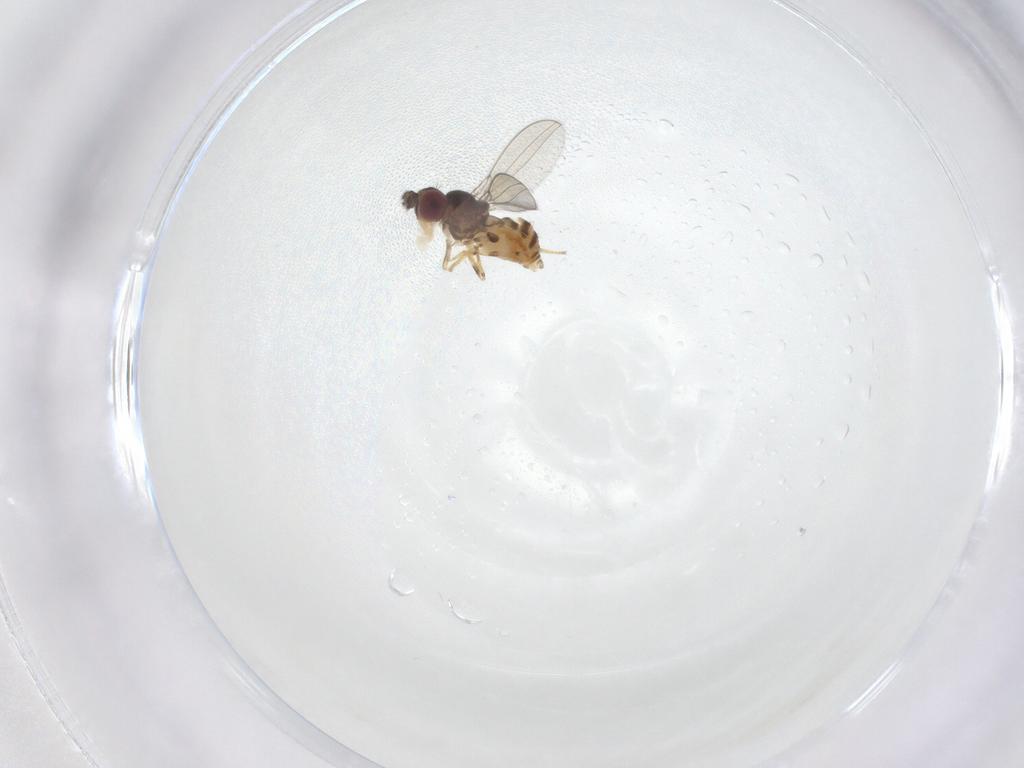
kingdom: Animalia
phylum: Arthropoda
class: Insecta
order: Diptera
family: Asteiidae
